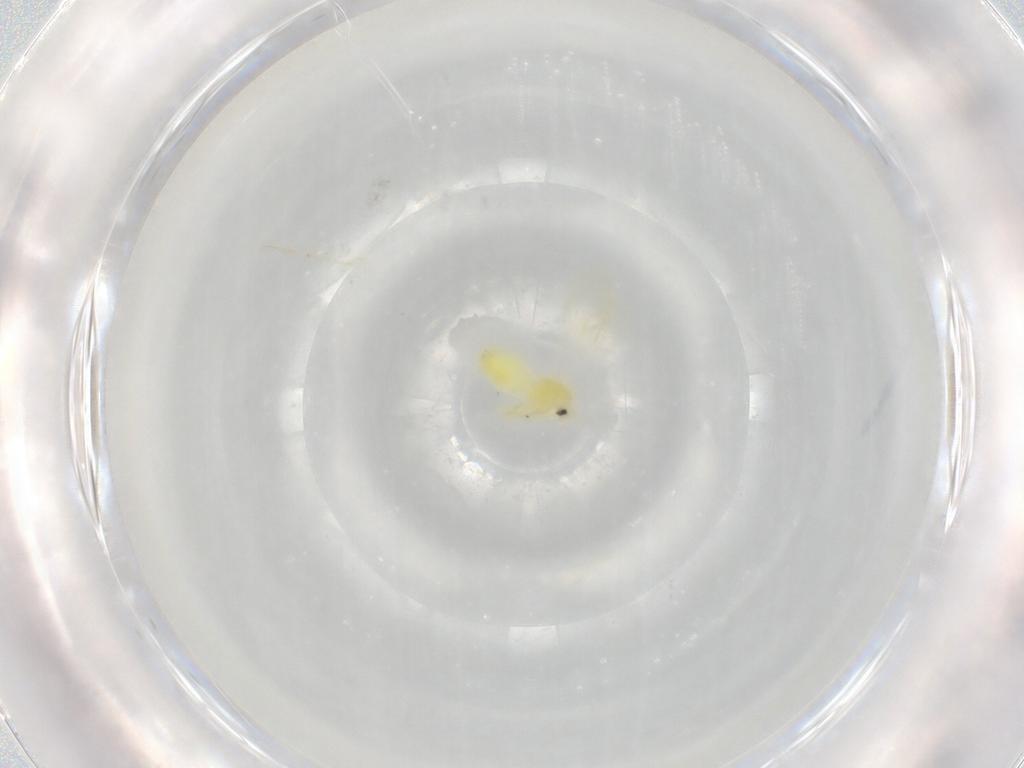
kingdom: Animalia
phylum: Arthropoda
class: Insecta
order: Hemiptera
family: Aleyrodidae
